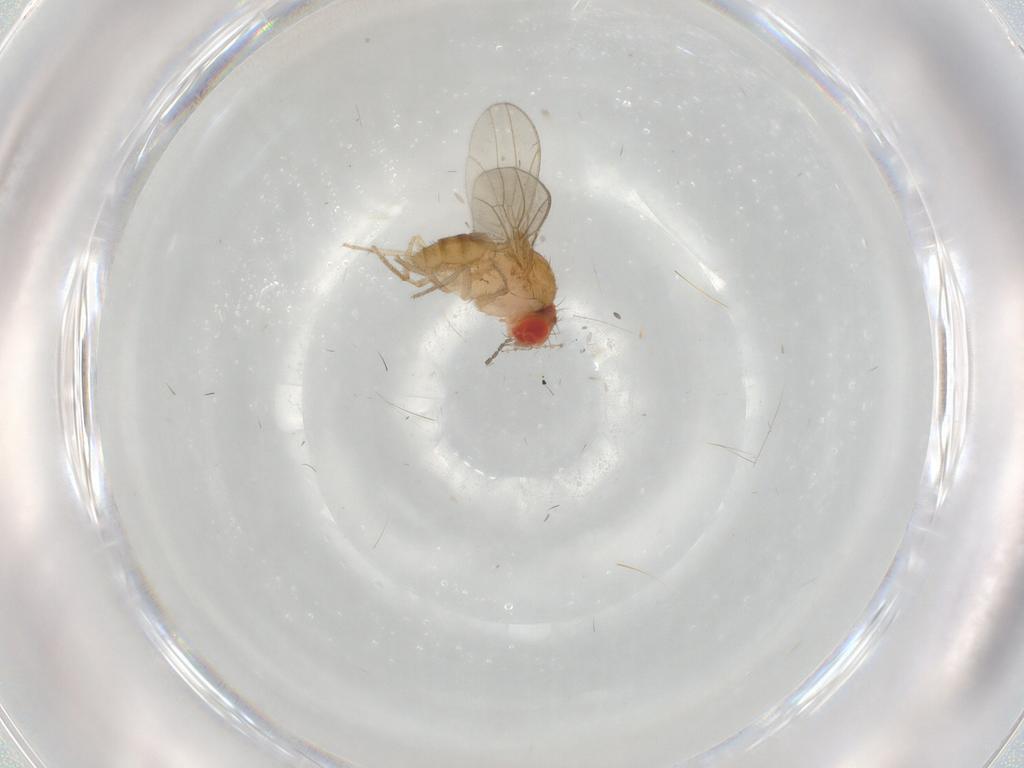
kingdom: Animalia
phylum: Arthropoda
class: Insecta
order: Diptera
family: Drosophilidae
